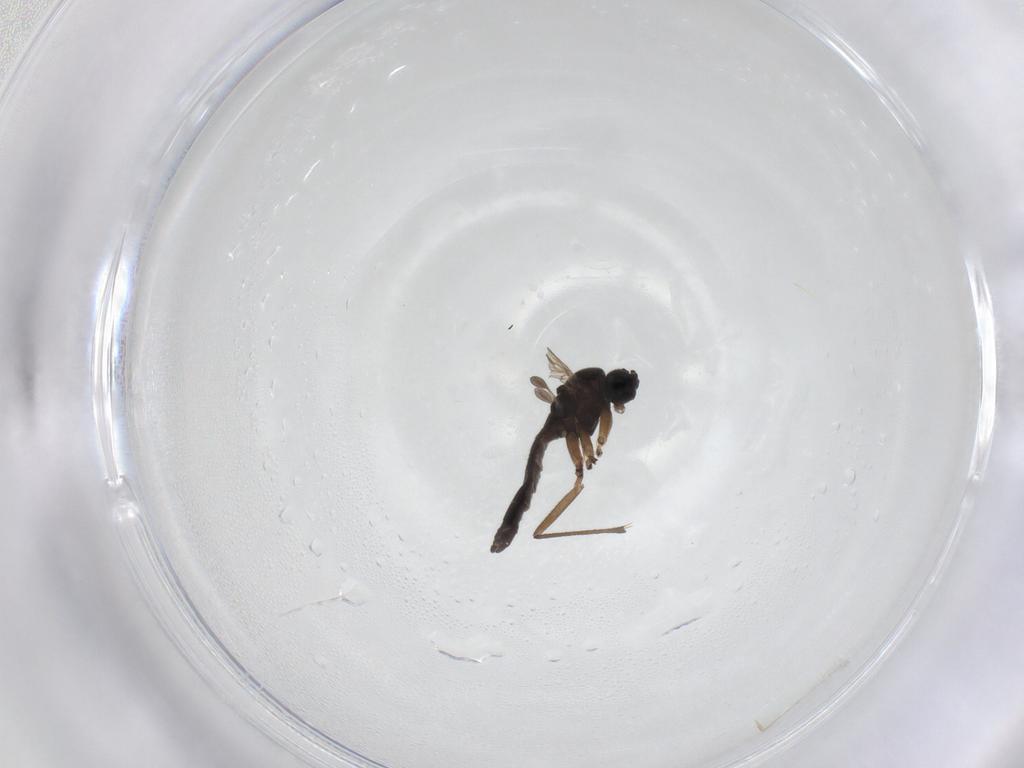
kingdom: Animalia
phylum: Arthropoda
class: Insecta
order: Diptera
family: Sciaridae
